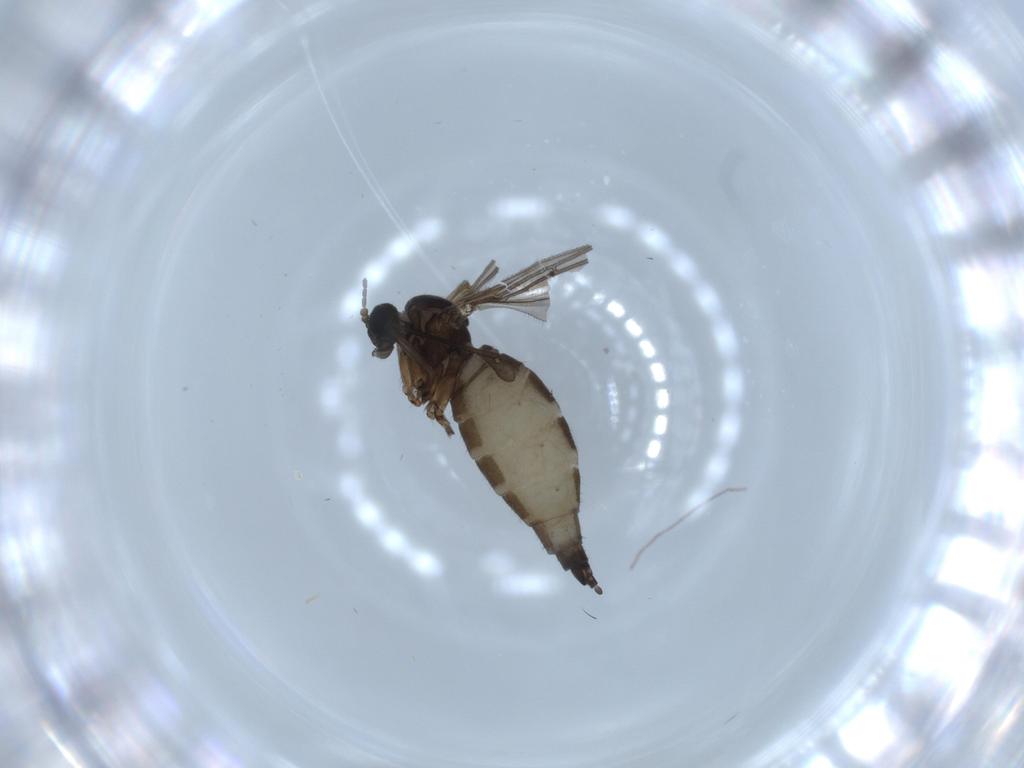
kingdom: Animalia
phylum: Arthropoda
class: Insecta
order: Diptera
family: Sciaridae
